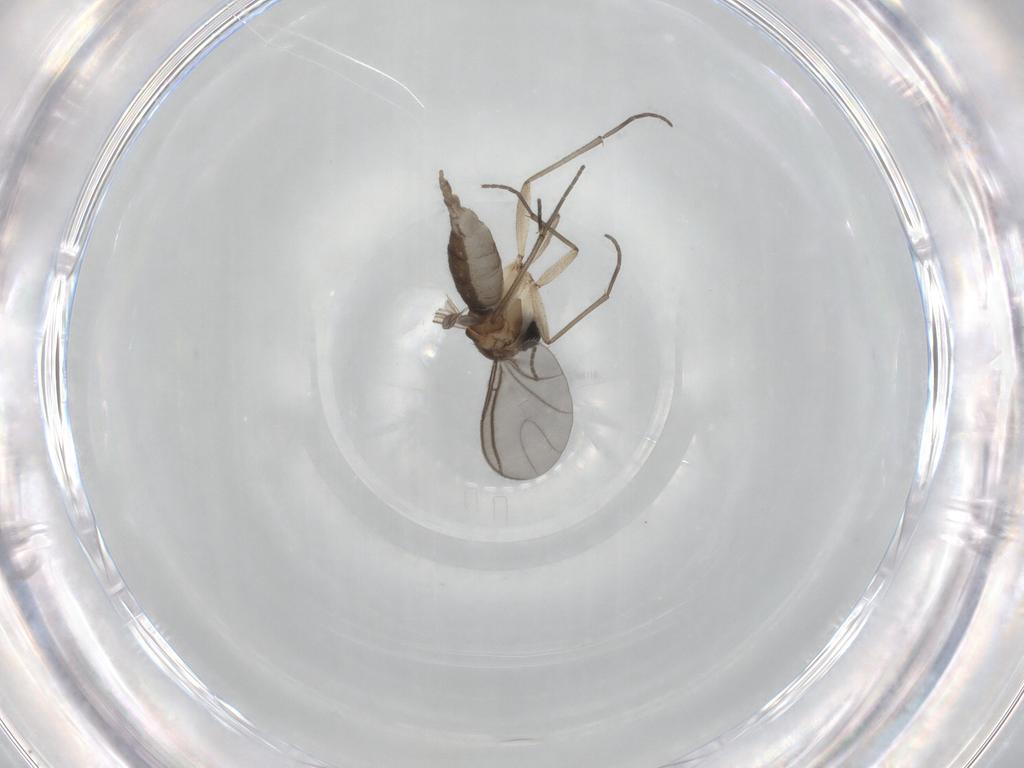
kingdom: Animalia
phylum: Arthropoda
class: Insecta
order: Diptera
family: Sciaridae
